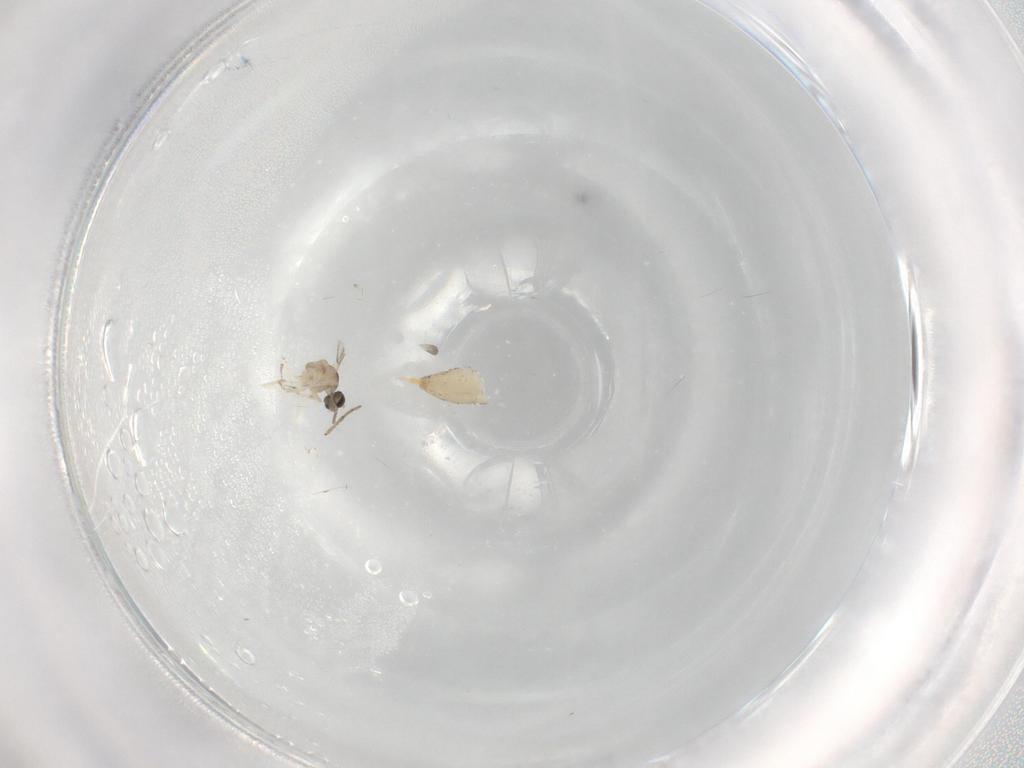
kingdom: Animalia
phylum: Arthropoda
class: Insecta
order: Diptera
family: Cecidomyiidae
